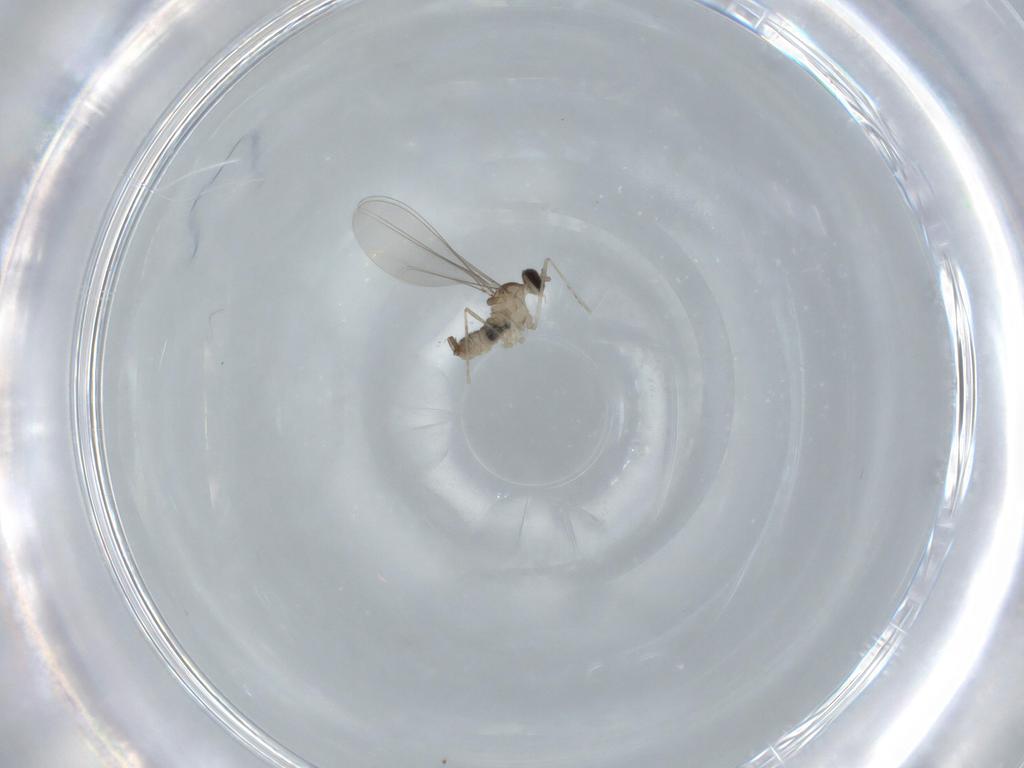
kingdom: Animalia
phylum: Arthropoda
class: Insecta
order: Diptera
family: Cecidomyiidae
